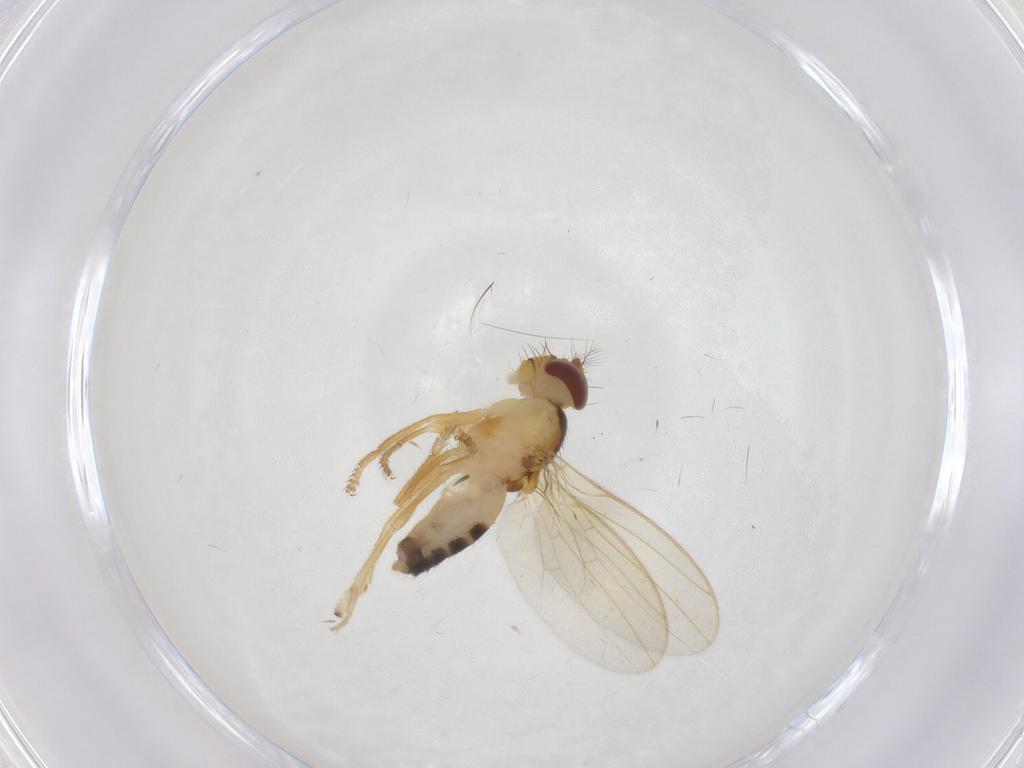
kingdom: Animalia
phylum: Arthropoda
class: Insecta
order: Diptera
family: Periscelididae
